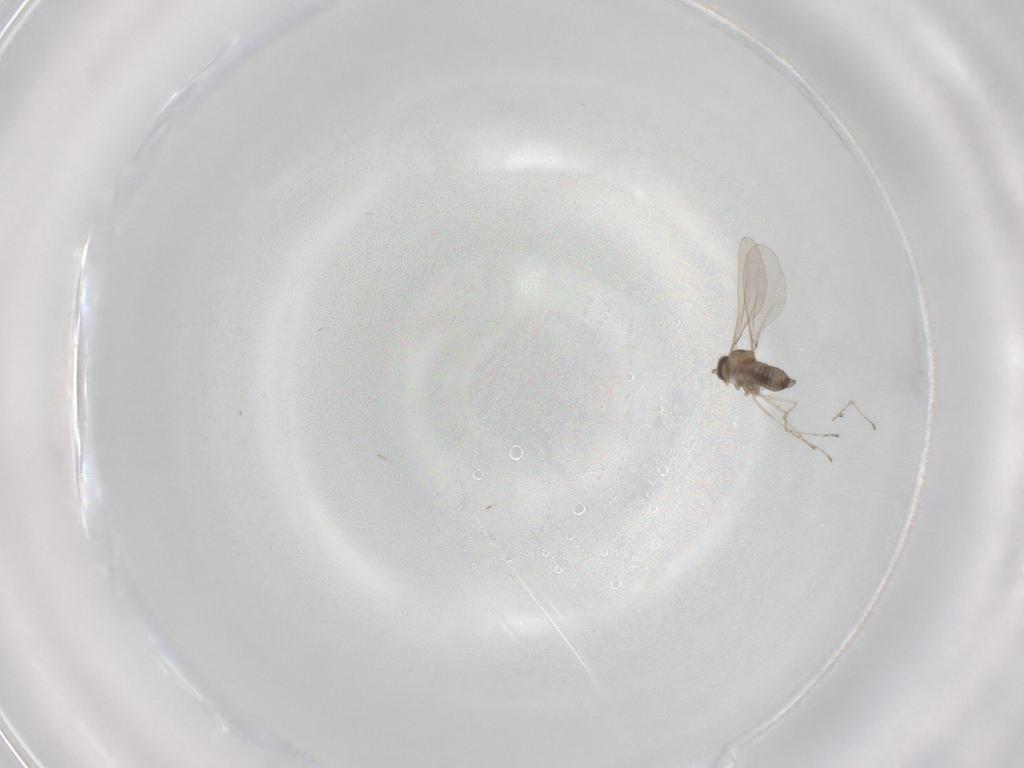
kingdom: Animalia
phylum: Arthropoda
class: Insecta
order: Diptera
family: Cecidomyiidae
